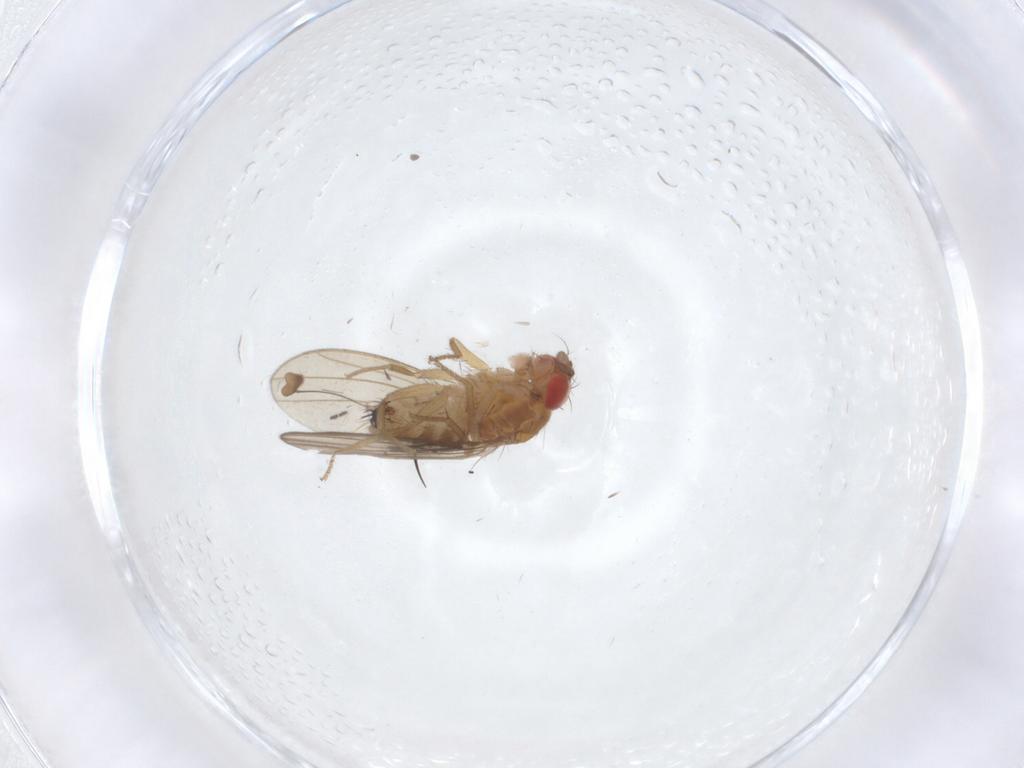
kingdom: Animalia
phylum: Arthropoda
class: Insecta
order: Diptera
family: Drosophilidae
